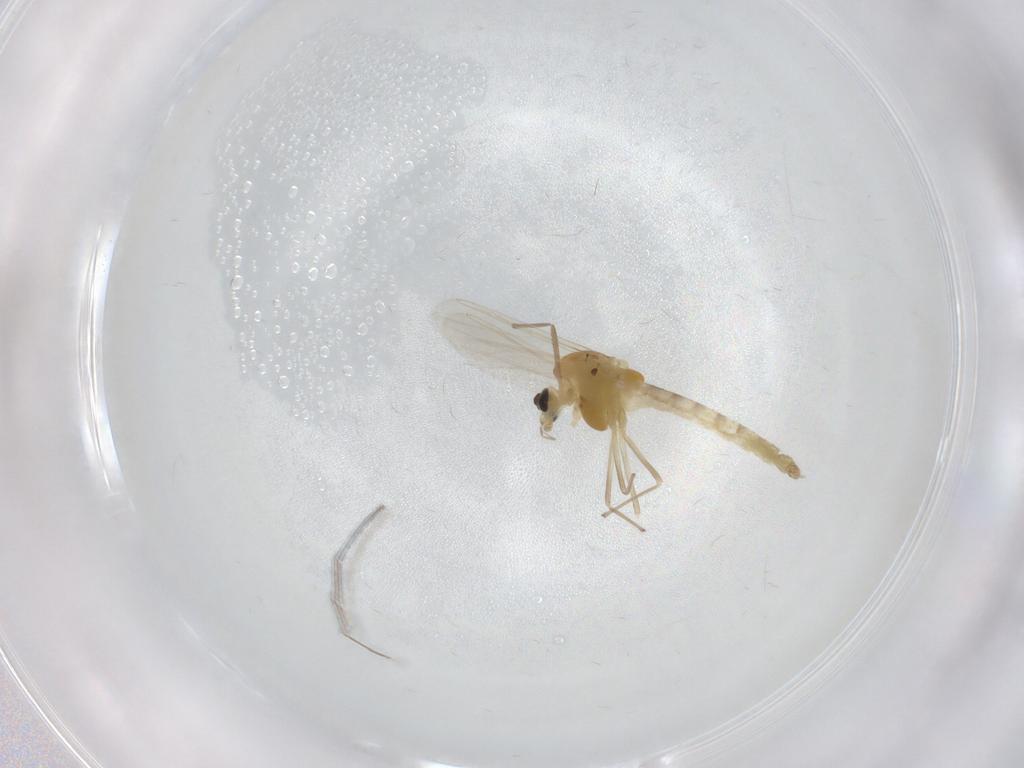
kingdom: Animalia
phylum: Arthropoda
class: Insecta
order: Diptera
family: Chironomidae
